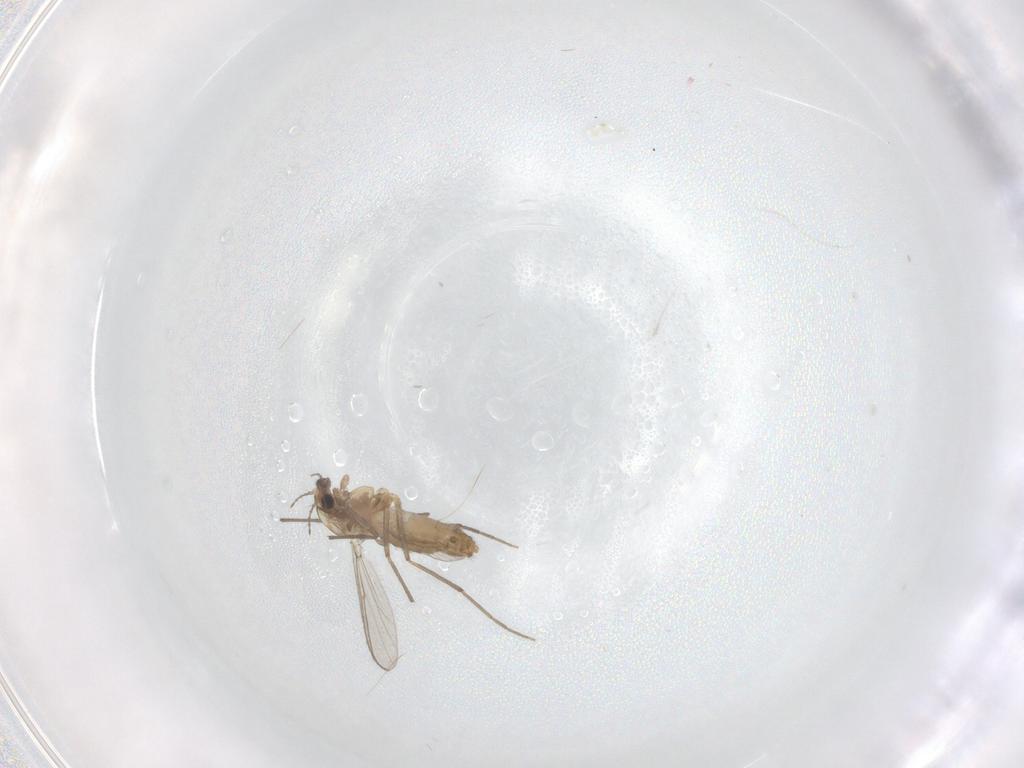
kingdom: Animalia
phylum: Arthropoda
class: Insecta
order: Diptera
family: Chironomidae
